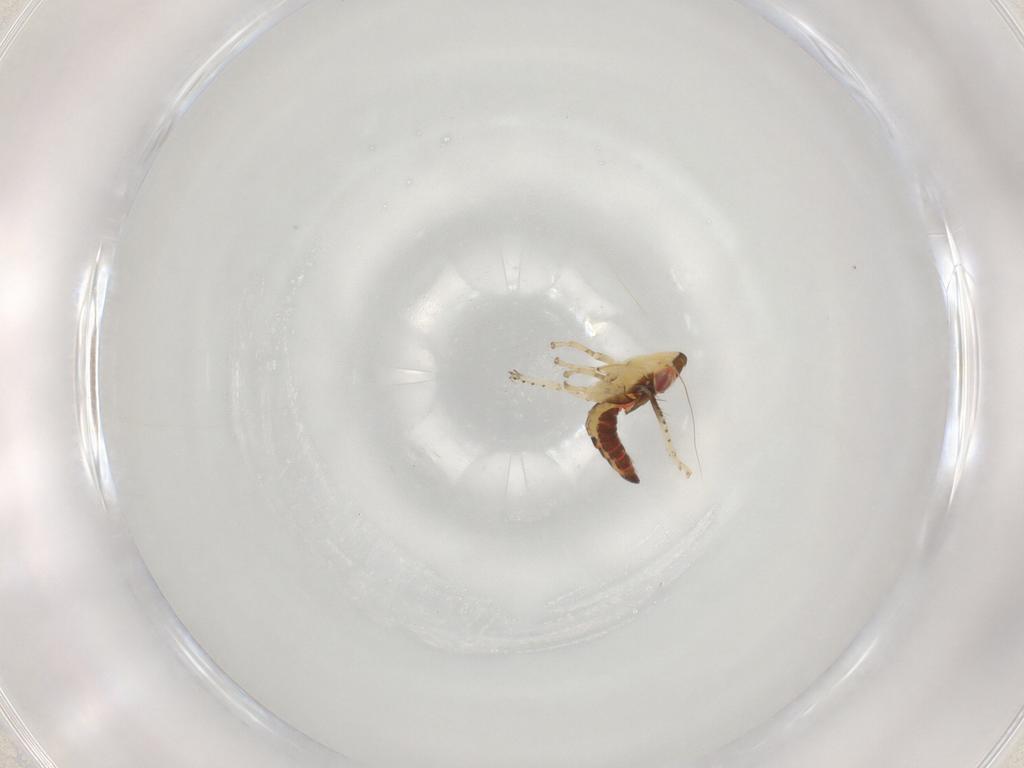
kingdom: Animalia
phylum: Arthropoda
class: Insecta
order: Hemiptera
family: Cicadellidae
